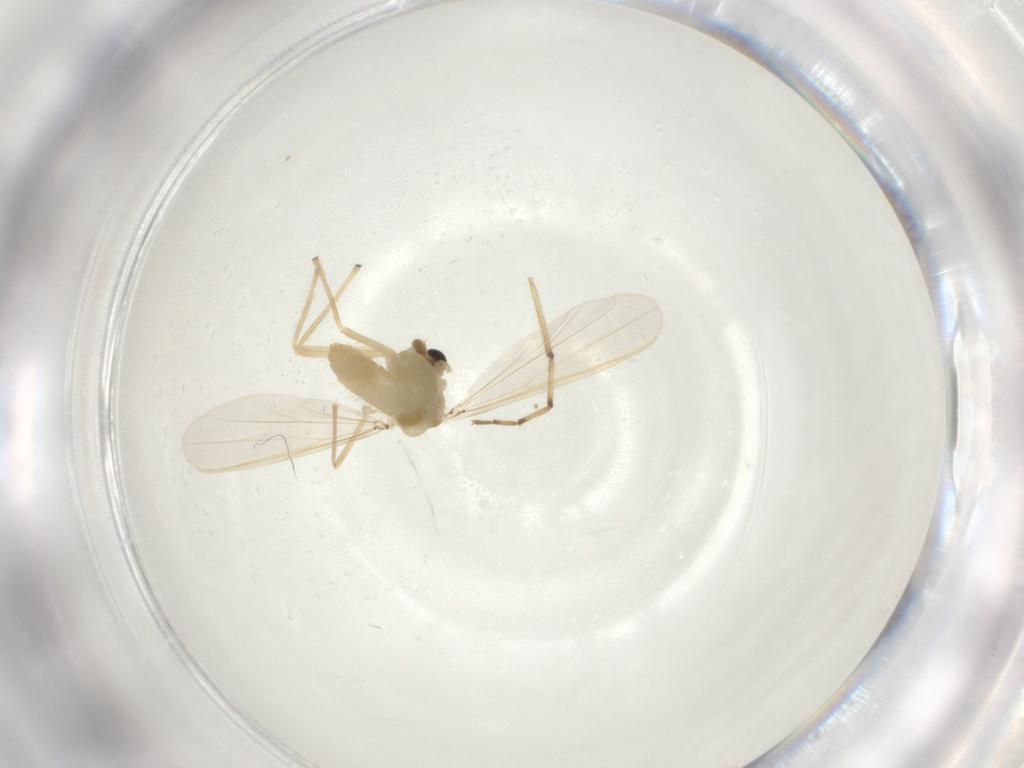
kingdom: Animalia
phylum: Arthropoda
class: Insecta
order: Diptera
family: Chironomidae
